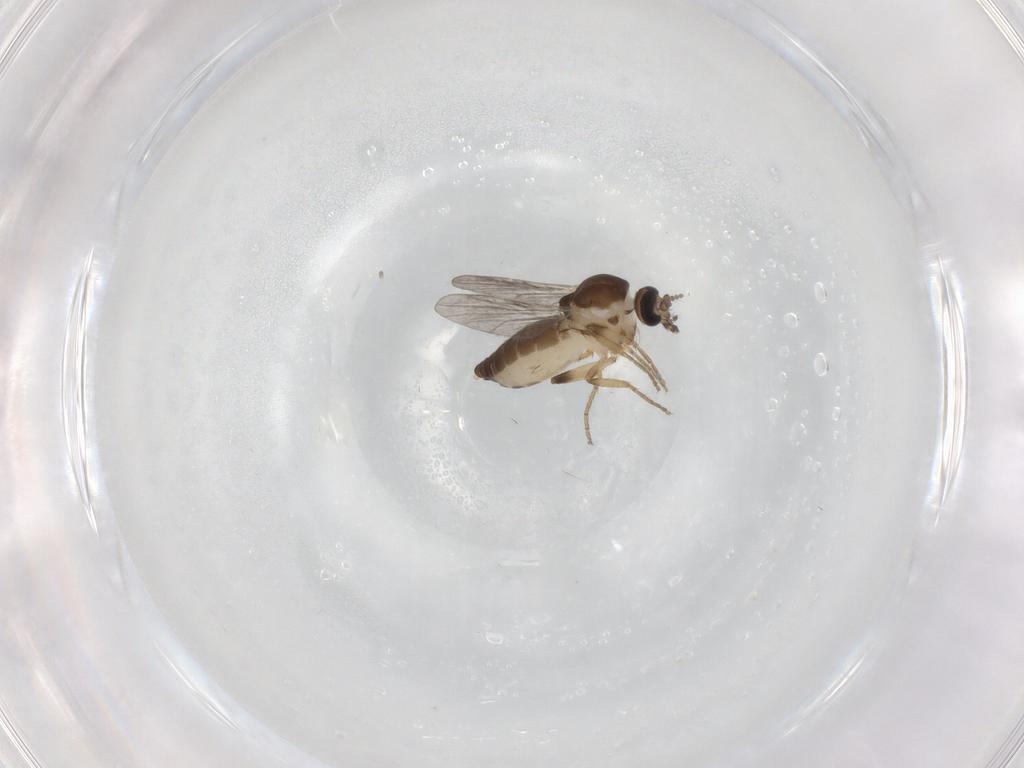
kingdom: Animalia
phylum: Arthropoda
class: Insecta
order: Diptera
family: Ceratopogonidae
